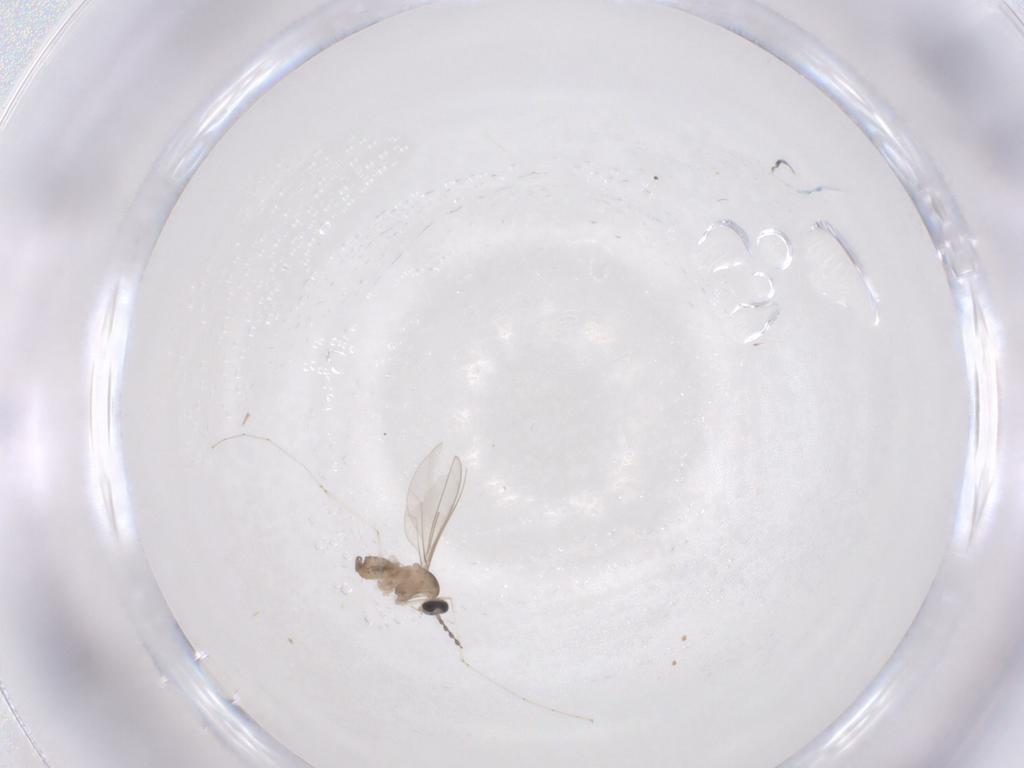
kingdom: Animalia
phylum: Arthropoda
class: Insecta
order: Diptera
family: Cecidomyiidae
